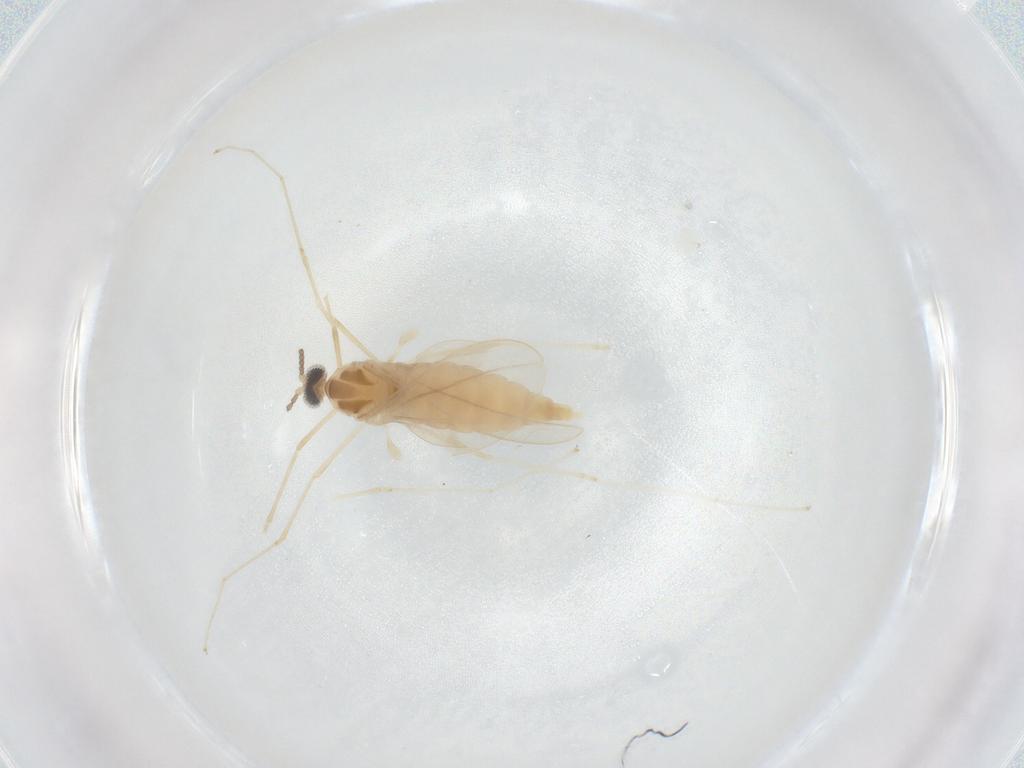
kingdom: Animalia
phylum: Arthropoda
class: Insecta
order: Diptera
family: Cecidomyiidae
